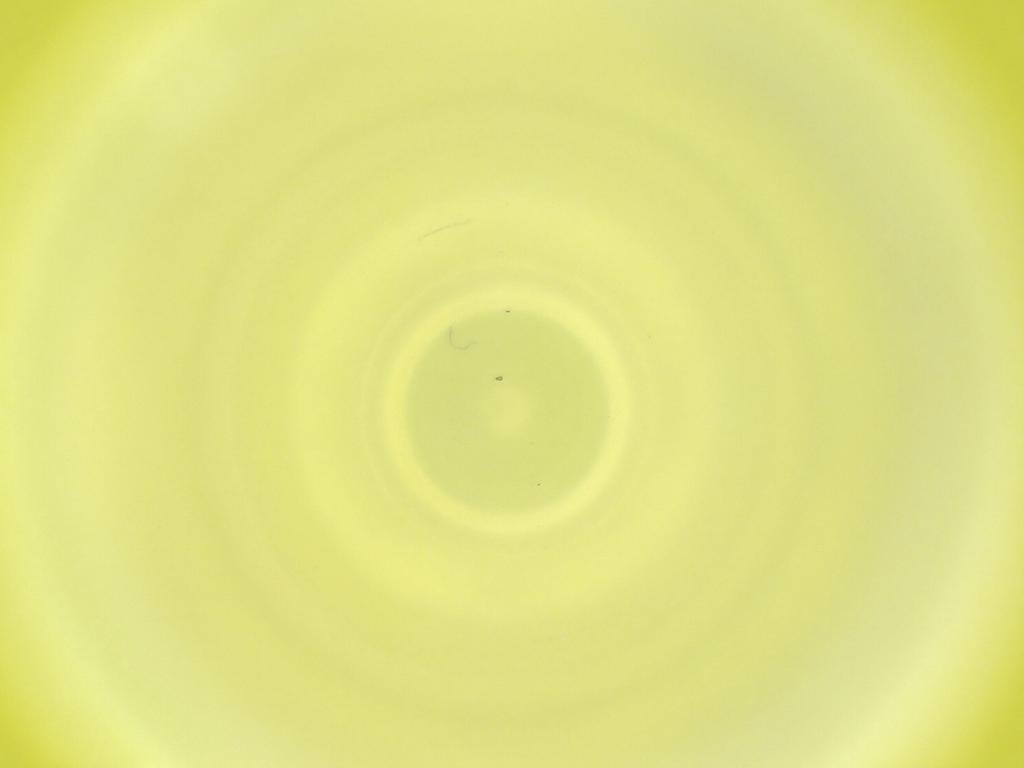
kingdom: Animalia
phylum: Arthropoda
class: Insecta
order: Diptera
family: Cecidomyiidae
